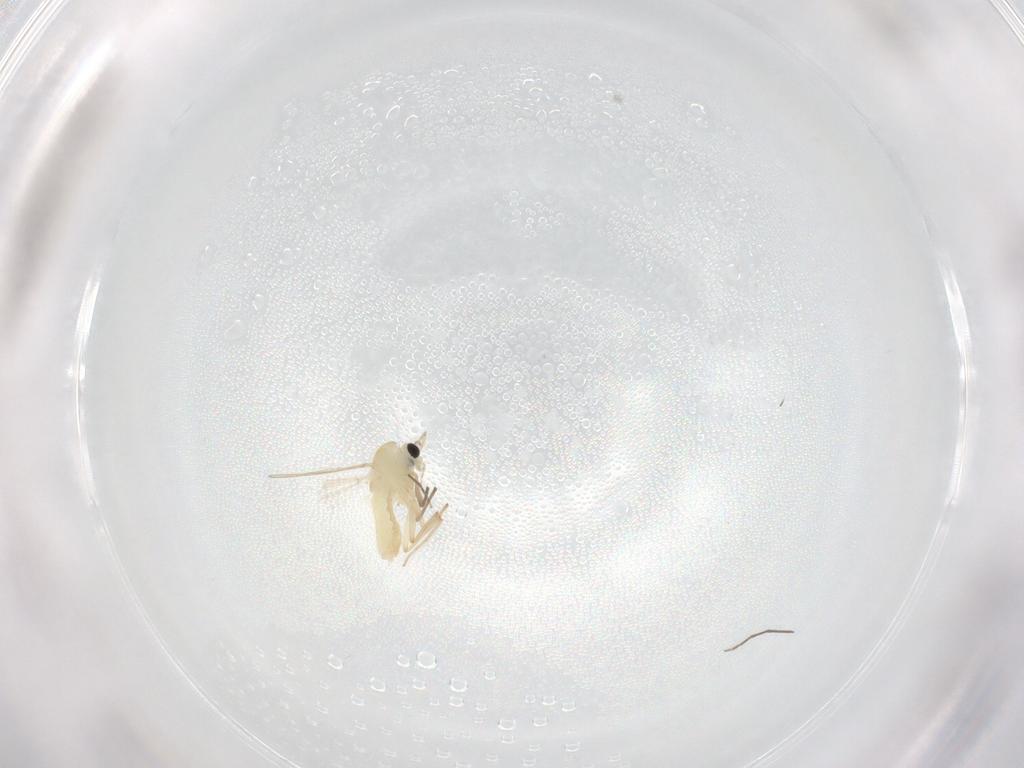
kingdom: Animalia
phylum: Arthropoda
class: Insecta
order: Diptera
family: Chironomidae
